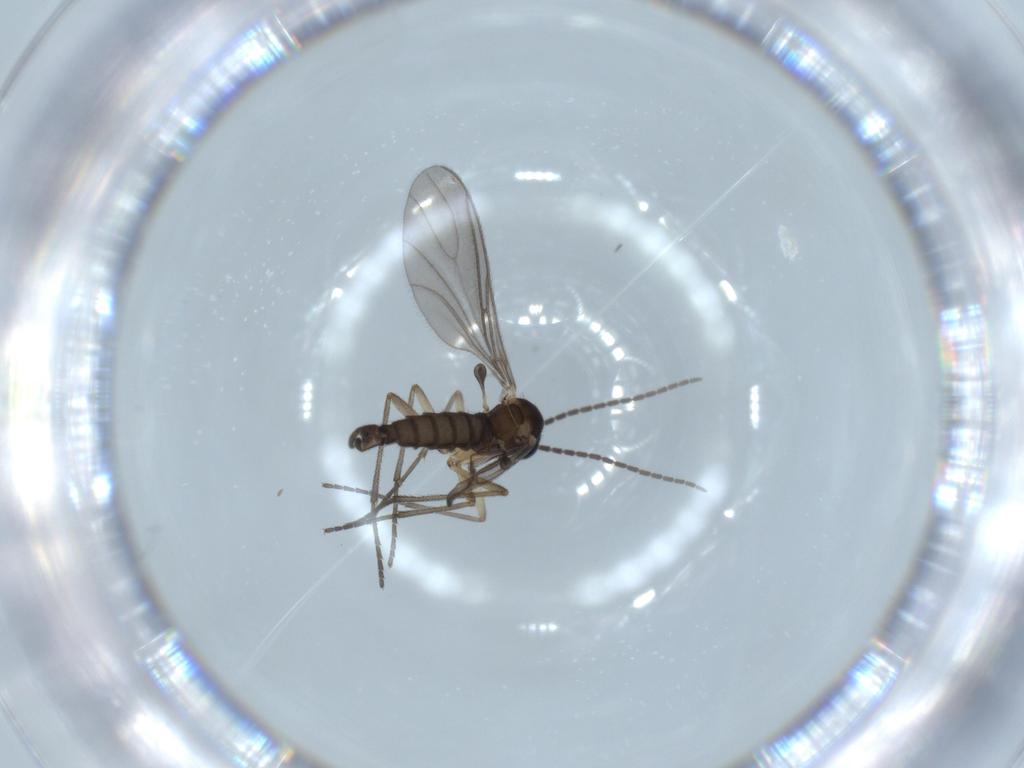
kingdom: Animalia
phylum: Arthropoda
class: Insecta
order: Diptera
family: Sciaridae
